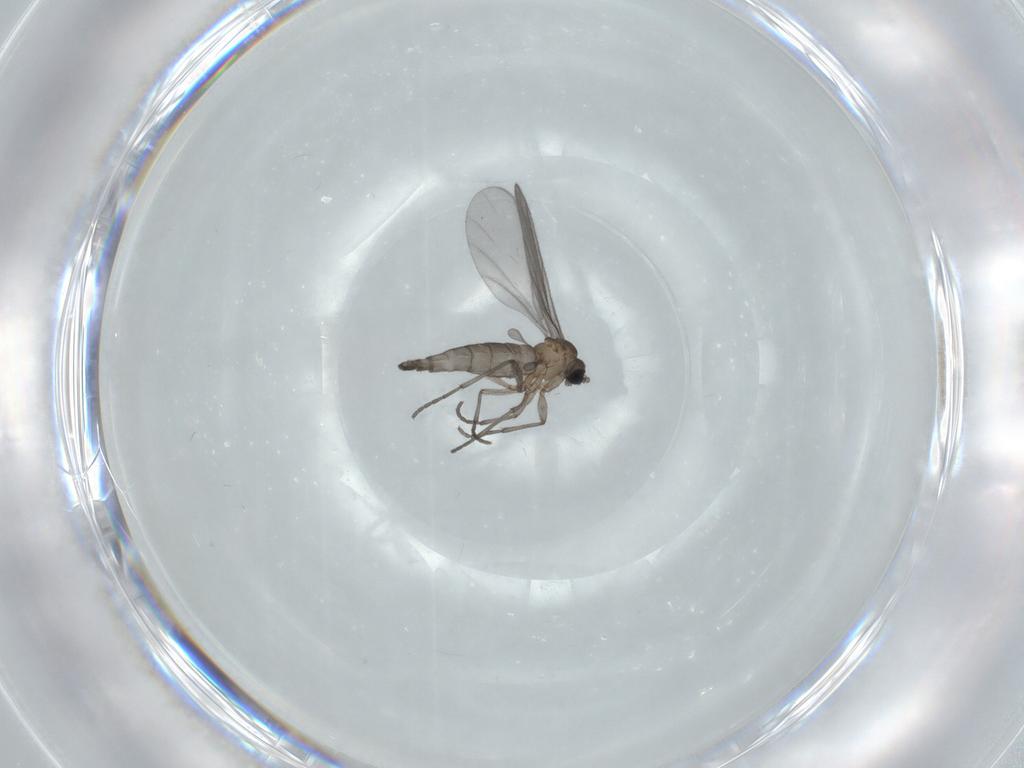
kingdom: Animalia
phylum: Arthropoda
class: Insecta
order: Diptera
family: Sciaridae
